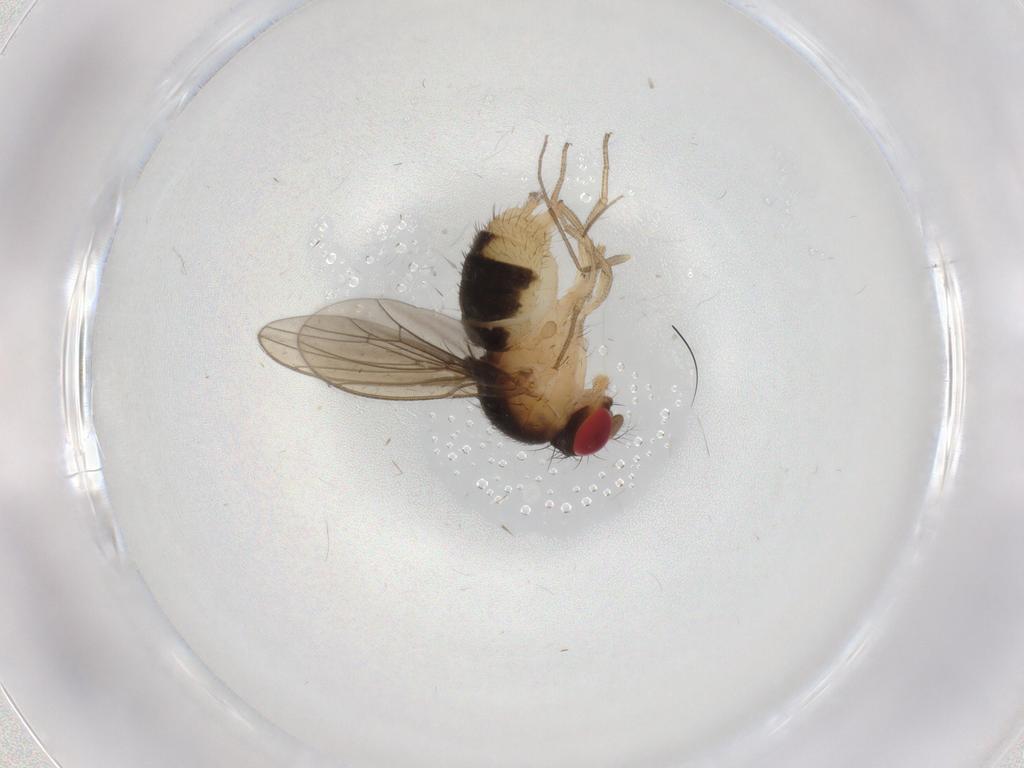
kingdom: Animalia
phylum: Arthropoda
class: Insecta
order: Diptera
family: Drosophilidae
